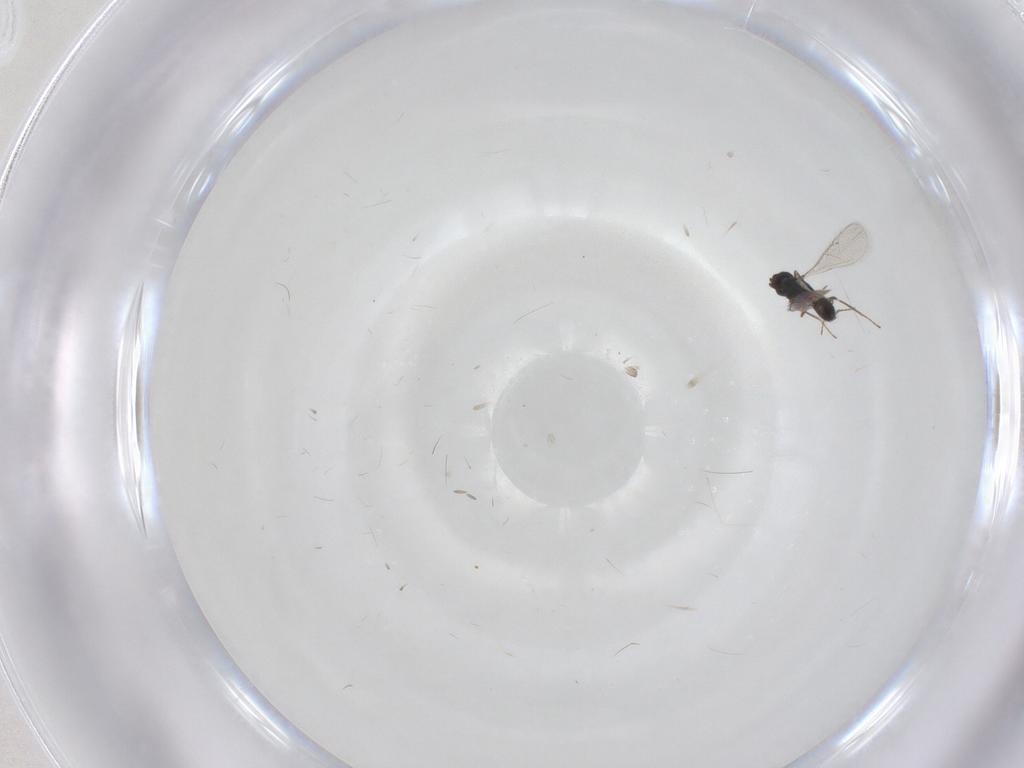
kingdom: Animalia
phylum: Arthropoda
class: Insecta
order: Hymenoptera
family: Eulophidae
